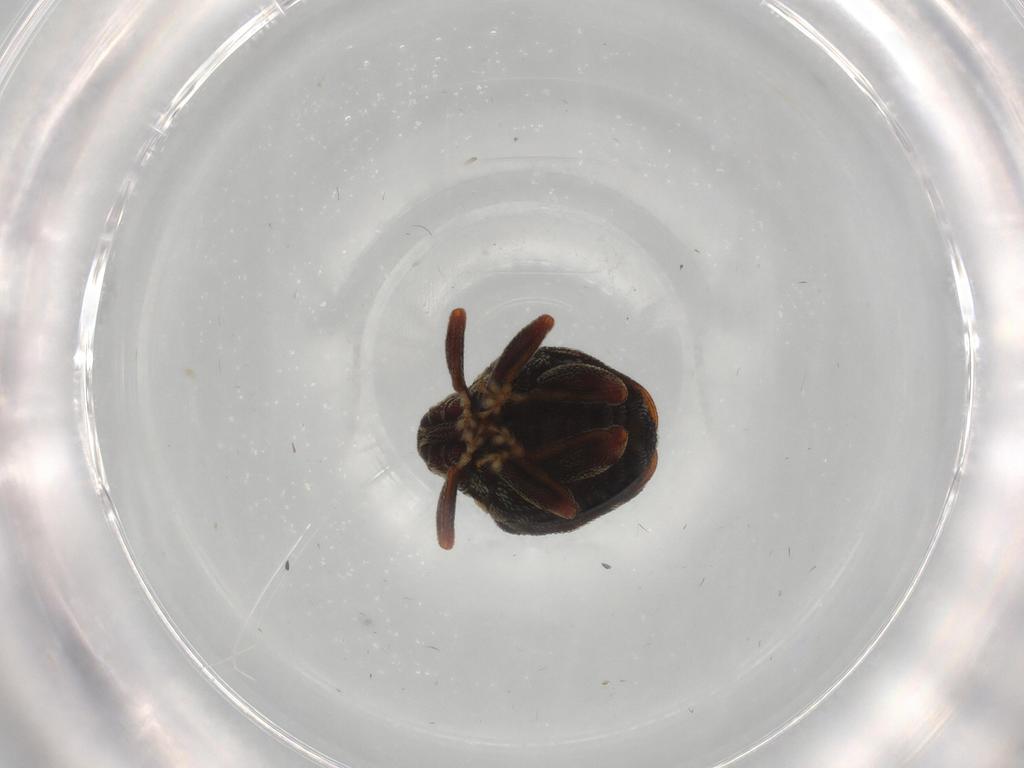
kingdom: Animalia
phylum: Arthropoda
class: Insecta
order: Coleoptera
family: Curculionidae
